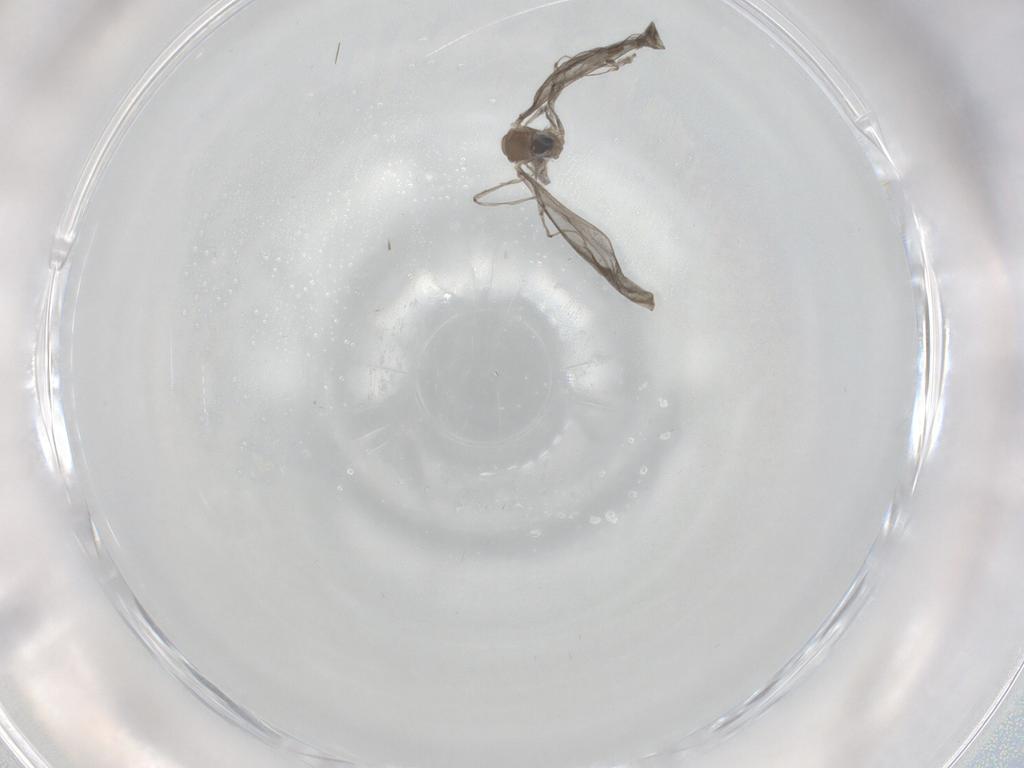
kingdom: Animalia
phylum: Arthropoda
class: Insecta
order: Diptera
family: Cecidomyiidae
